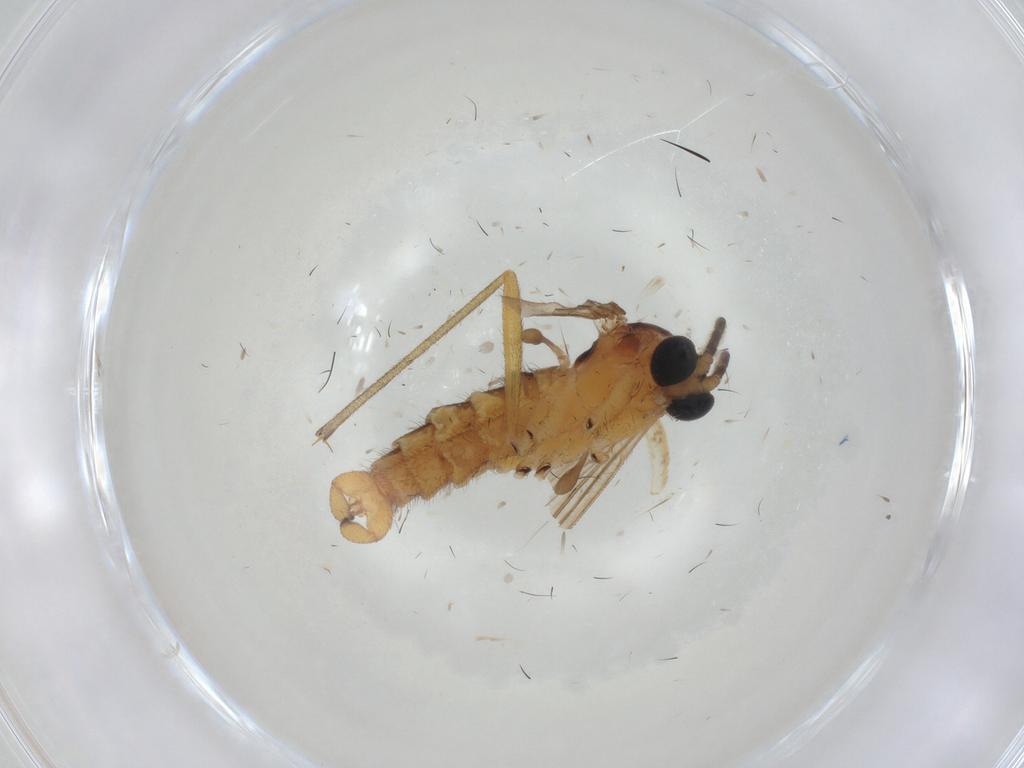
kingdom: Animalia
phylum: Arthropoda
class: Insecta
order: Diptera
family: Sciaridae
